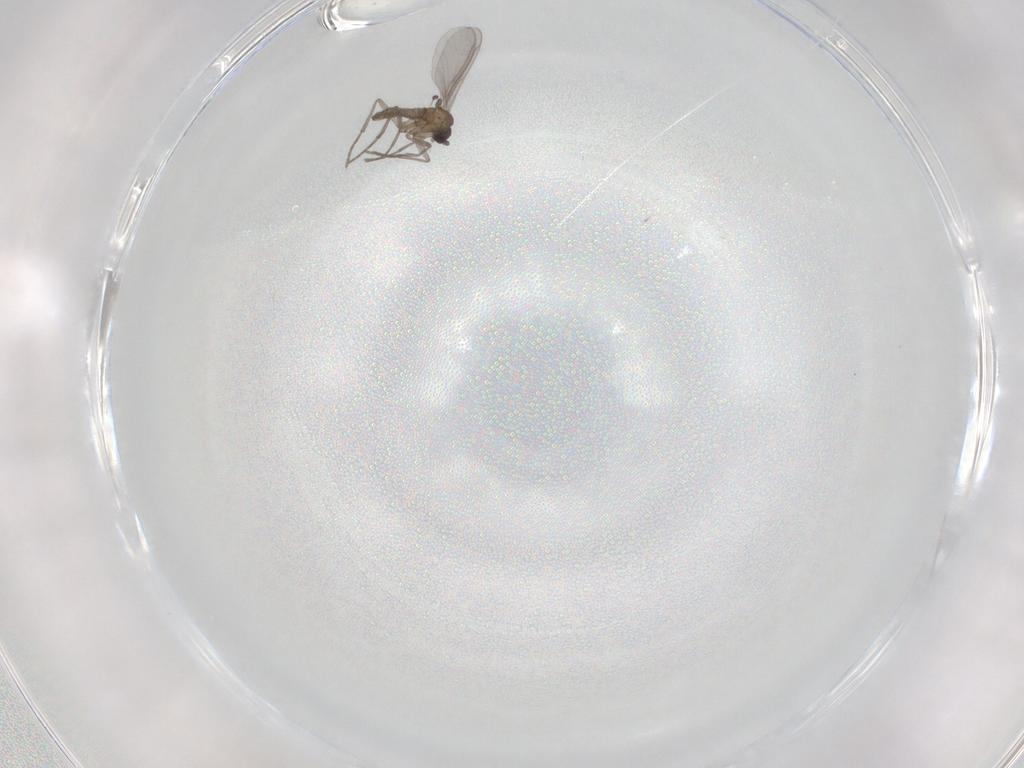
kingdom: Animalia
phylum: Arthropoda
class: Insecta
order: Diptera
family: Sciaridae
